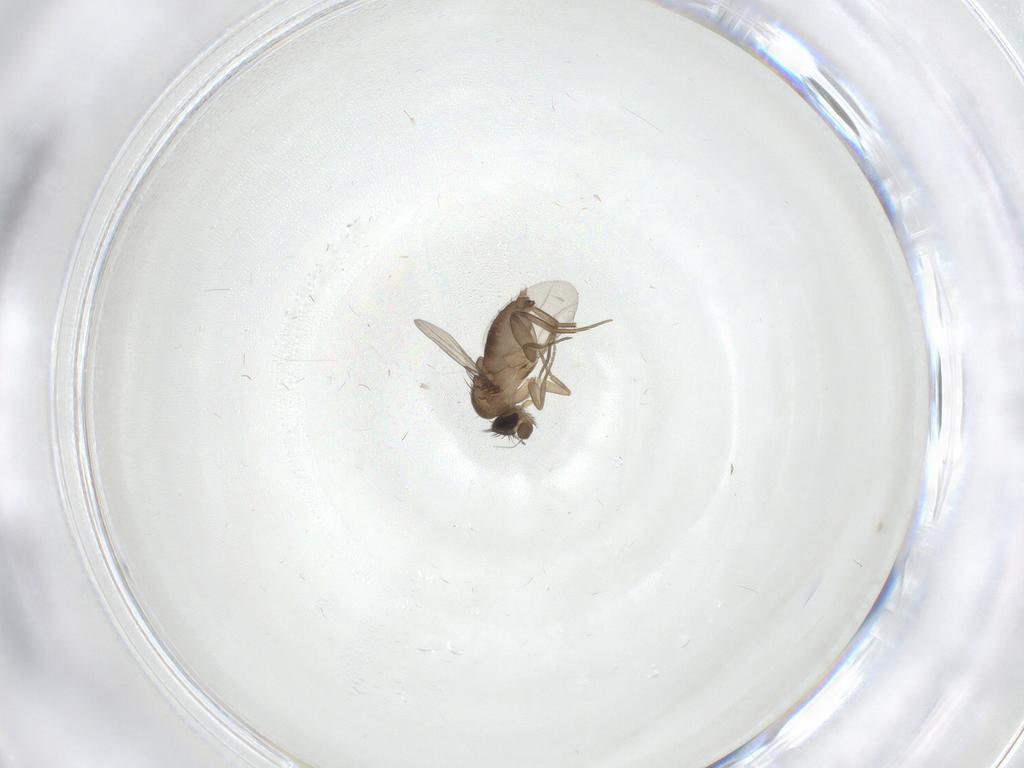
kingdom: Animalia
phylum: Arthropoda
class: Insecta
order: Diptera
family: Phoridae
